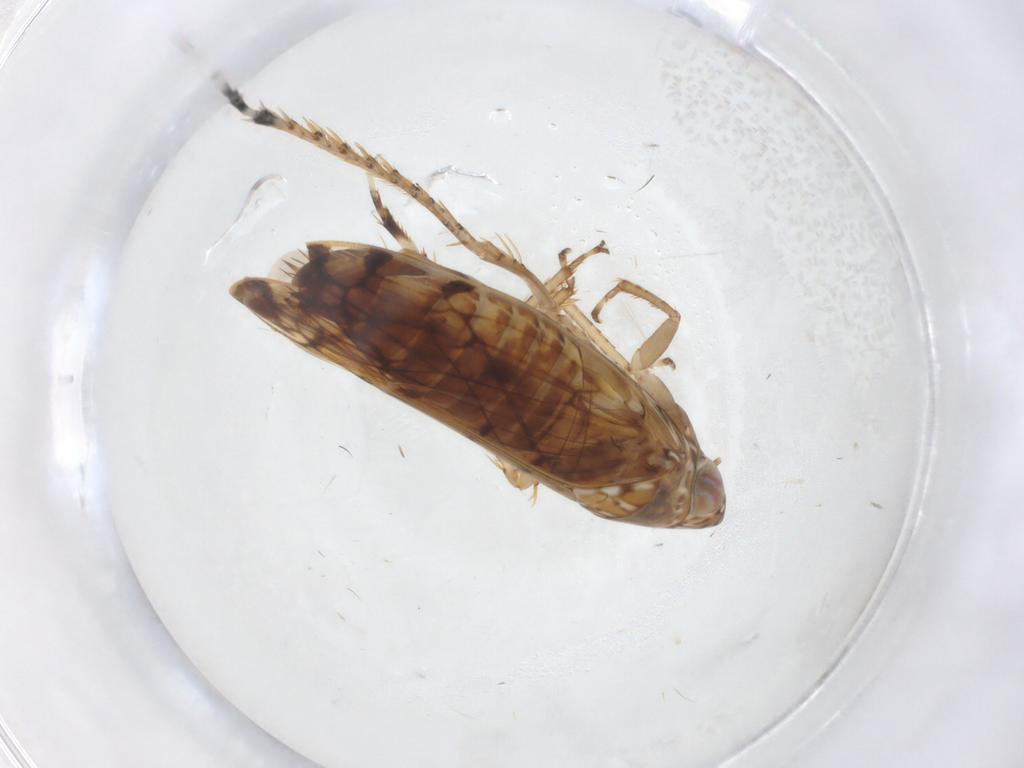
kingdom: Animalia
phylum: Arthropoda
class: Insecta
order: Hemiptera
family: Cicadellidae
